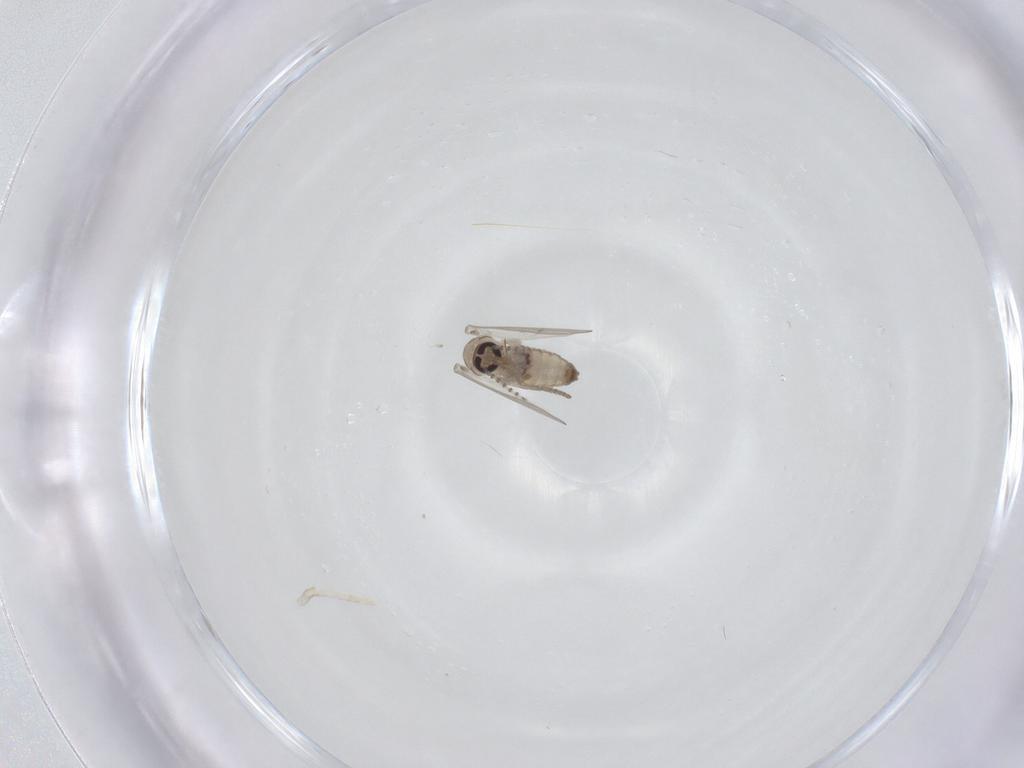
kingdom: Animalia
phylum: Arthropoda
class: Insecta
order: Diptera
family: Psychodidae
